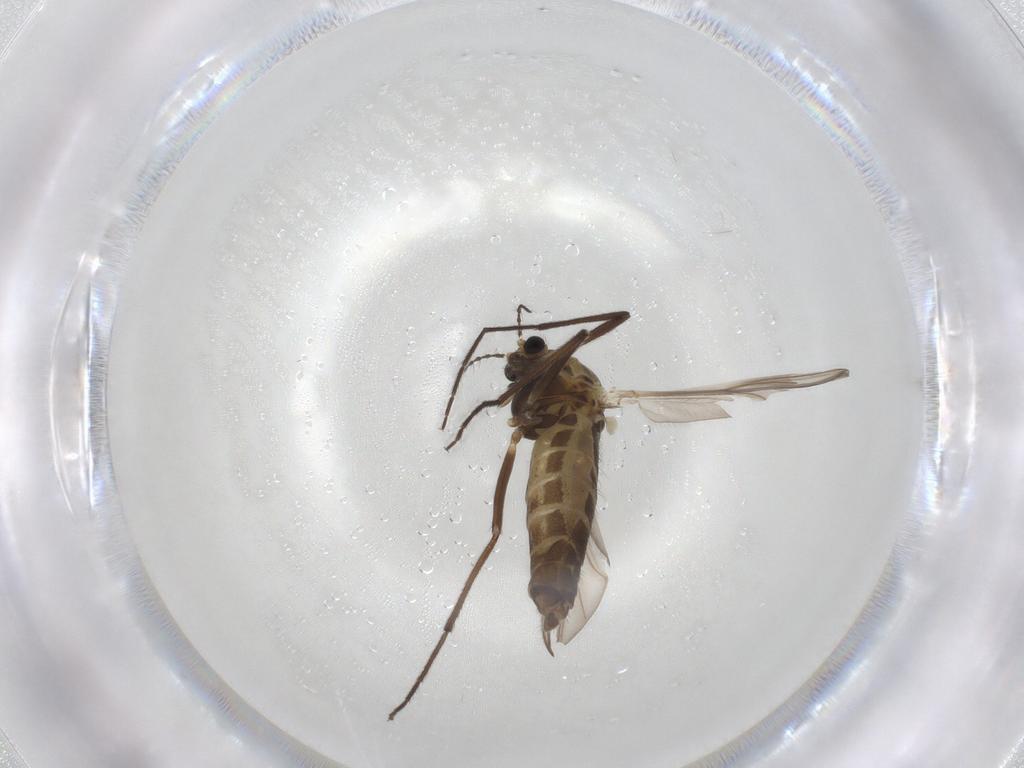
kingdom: Animalia
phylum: Arthropoda
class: Insecta
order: Diptera
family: Chironomidae
